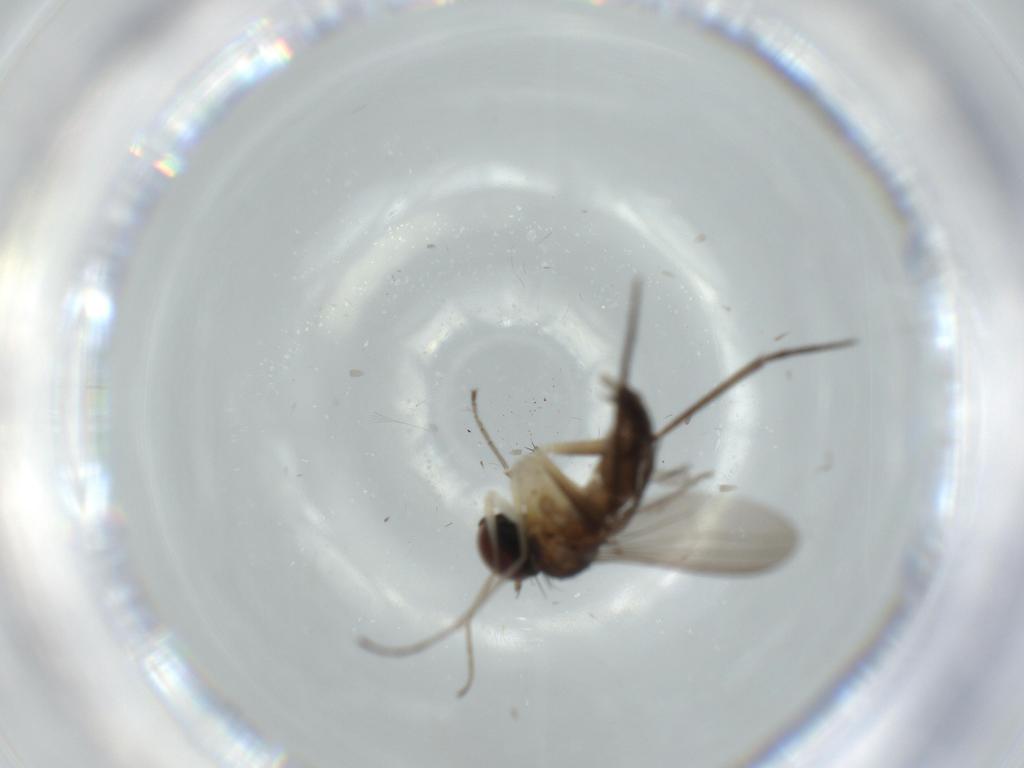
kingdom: Animalia
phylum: Arthropoda
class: Insecta
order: Diptera
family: Dolichopodidae
